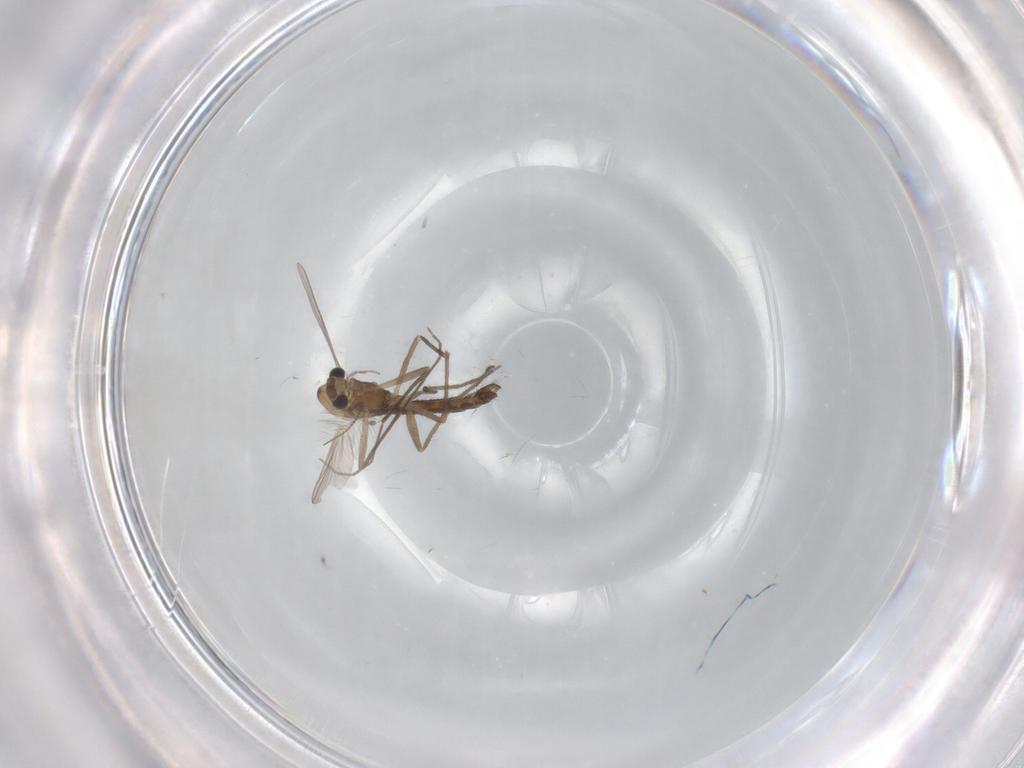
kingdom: Animalia
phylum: Arthropoda
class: Insecta
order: Diptera
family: Chironomidae
